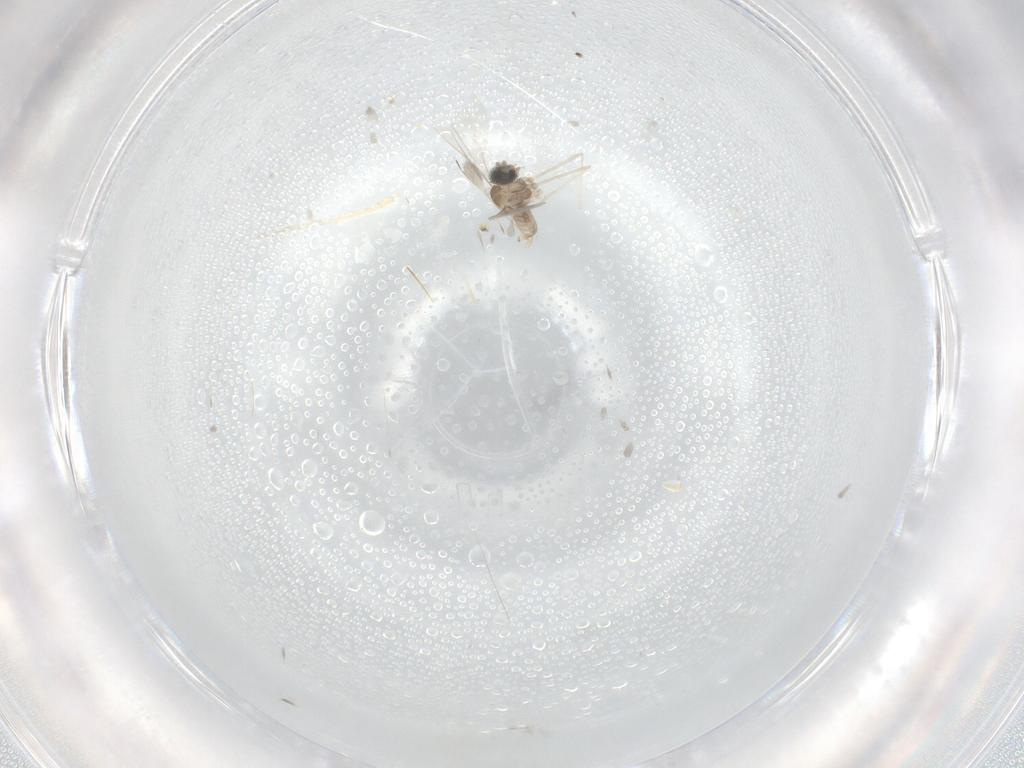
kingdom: Animalia
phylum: Arthropoda
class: Insecta
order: Diptera
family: Cecidomyiidae
